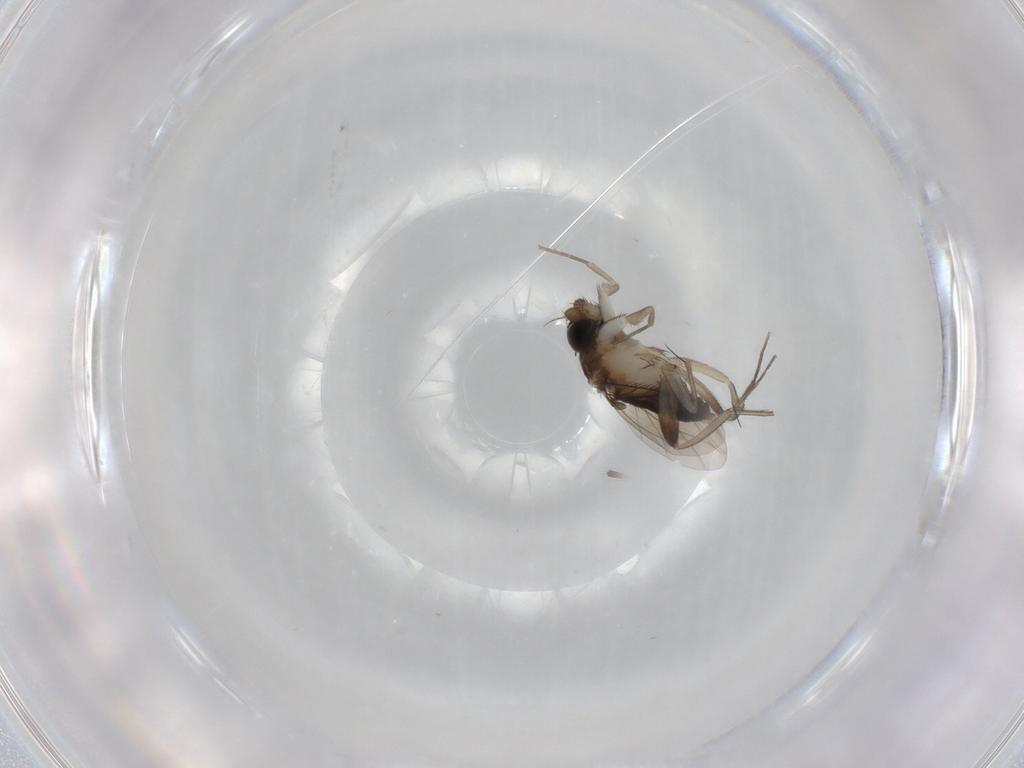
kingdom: Animalia
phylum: Arthropoda
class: Insecta
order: Diptera
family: Phoridae
